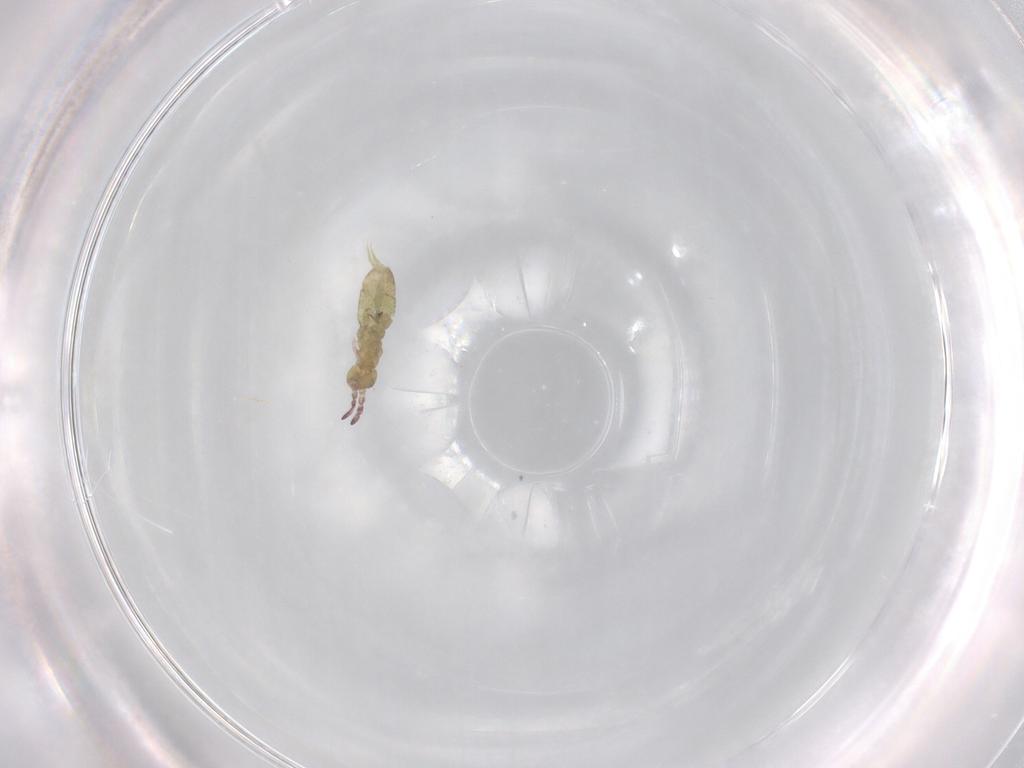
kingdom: Animalia
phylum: Arthropoda
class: Collembola
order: Entomobryomorpha
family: Isotomidae
